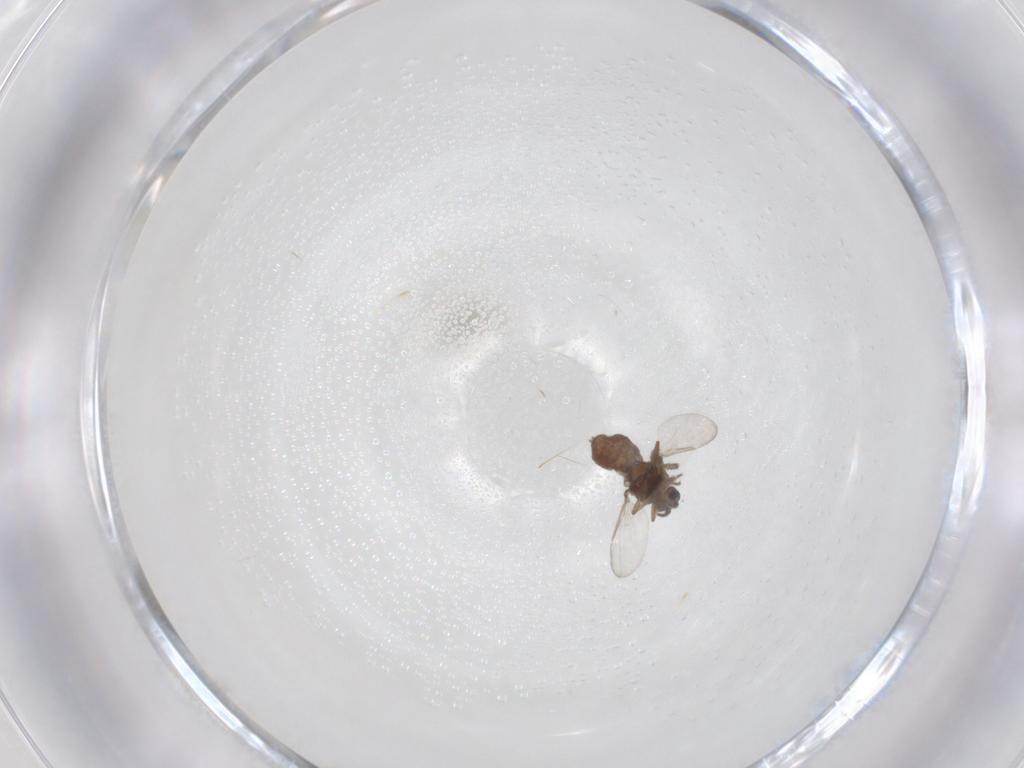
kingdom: Animalia
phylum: Arthropoda
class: Insecta
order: Diptera
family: Ceratopogonidae
